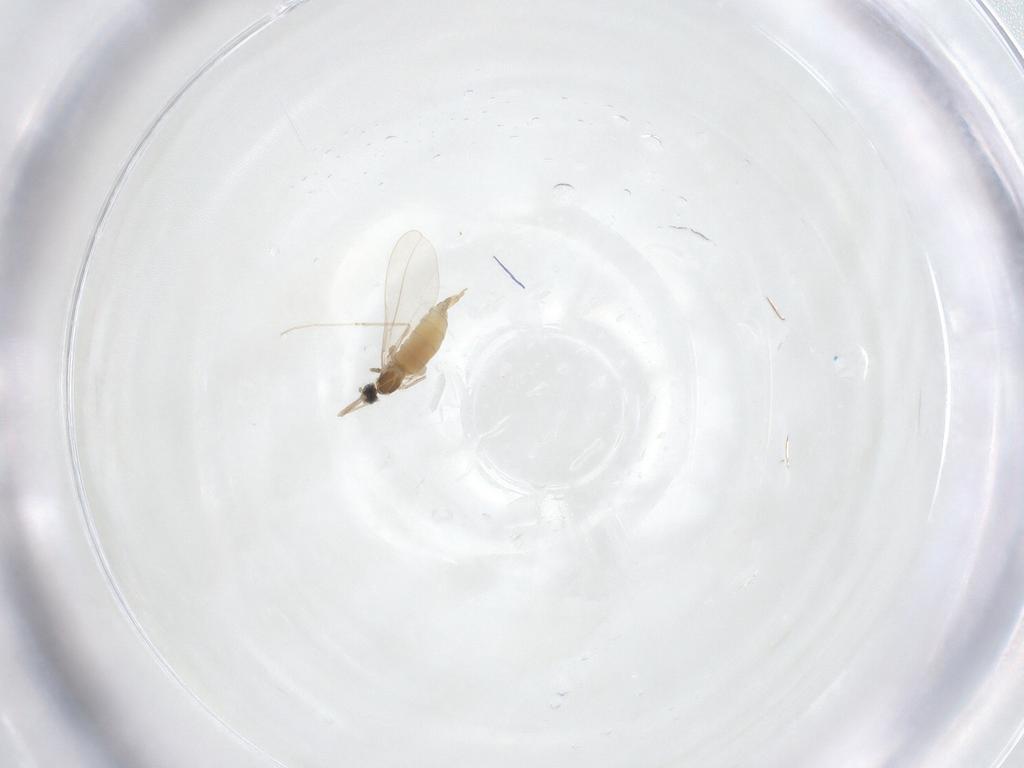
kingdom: Animalia
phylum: Arthropoda
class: Insecta
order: Diptera
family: Cecidomyiidae
